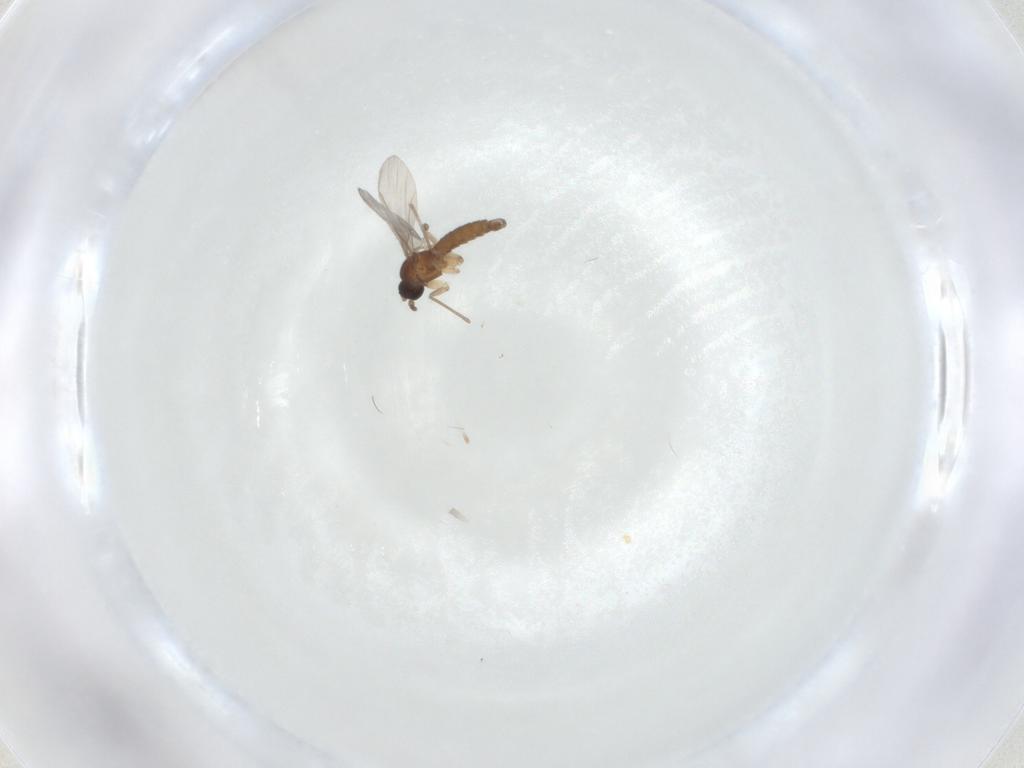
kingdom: Animalia
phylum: Arthropoda
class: Insecta
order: Diptera
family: Sciaridae
